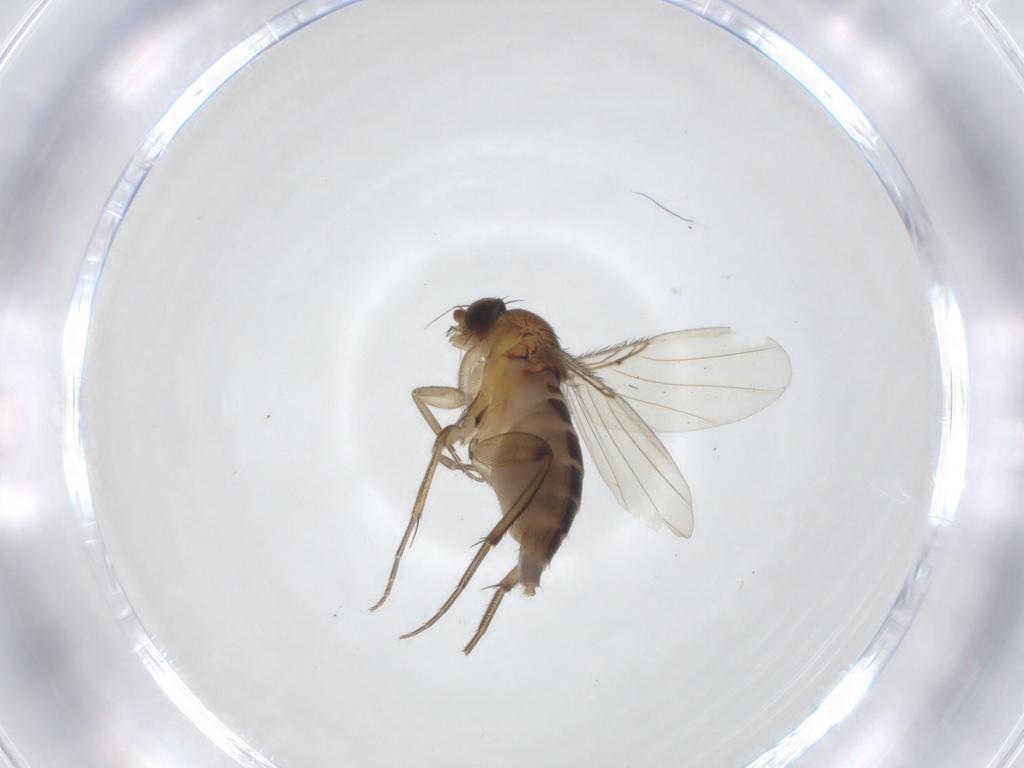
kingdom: Animalia
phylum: Arthropoda
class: Insecta
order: Diptera
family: Phoridae
